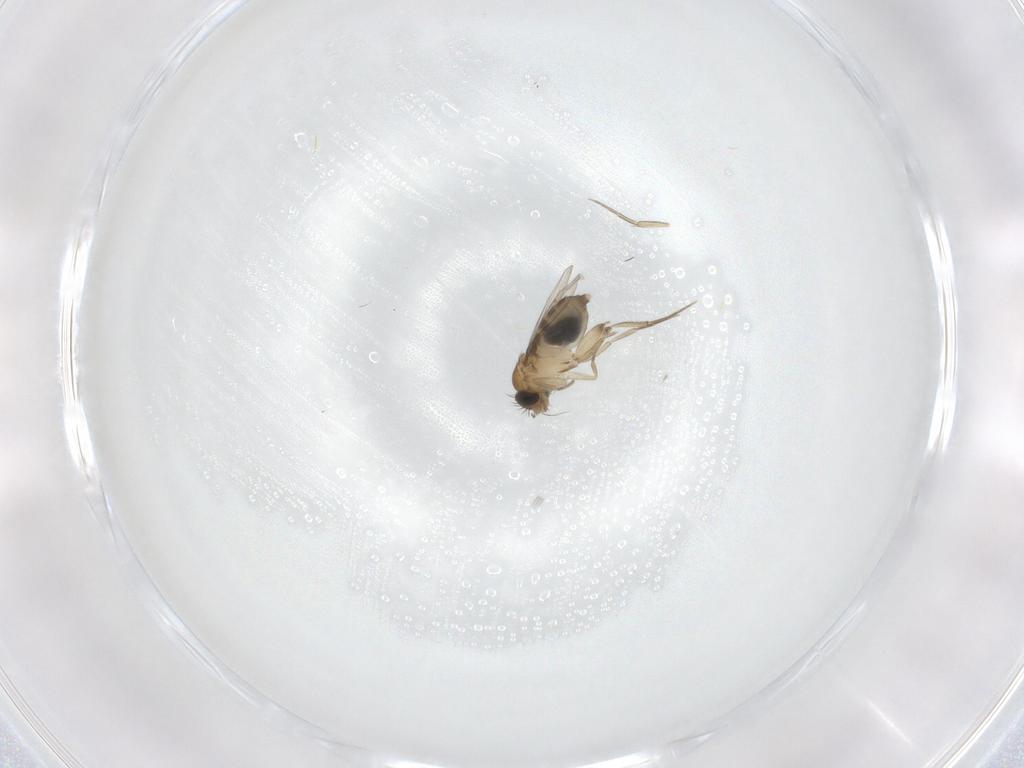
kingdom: Animalia
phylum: Arthropoda
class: Insecta
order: Diptera
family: Phoridae
